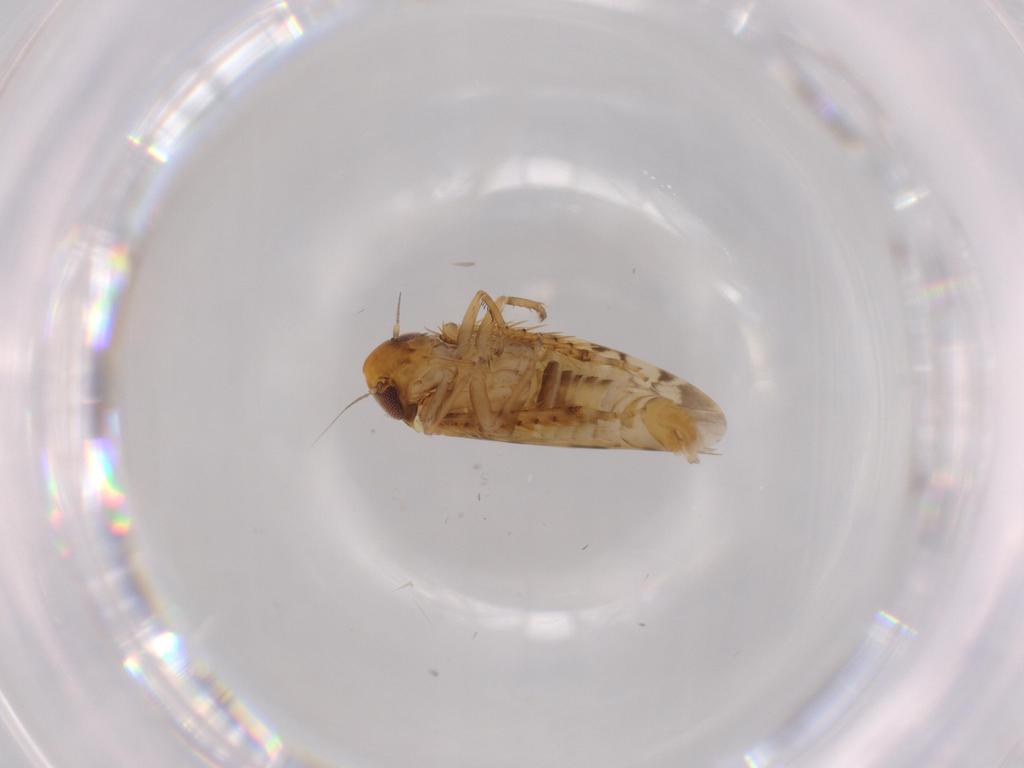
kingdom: Animalia
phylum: Arthropoda
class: Insecta
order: Hemiptera
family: Cicadellidae
